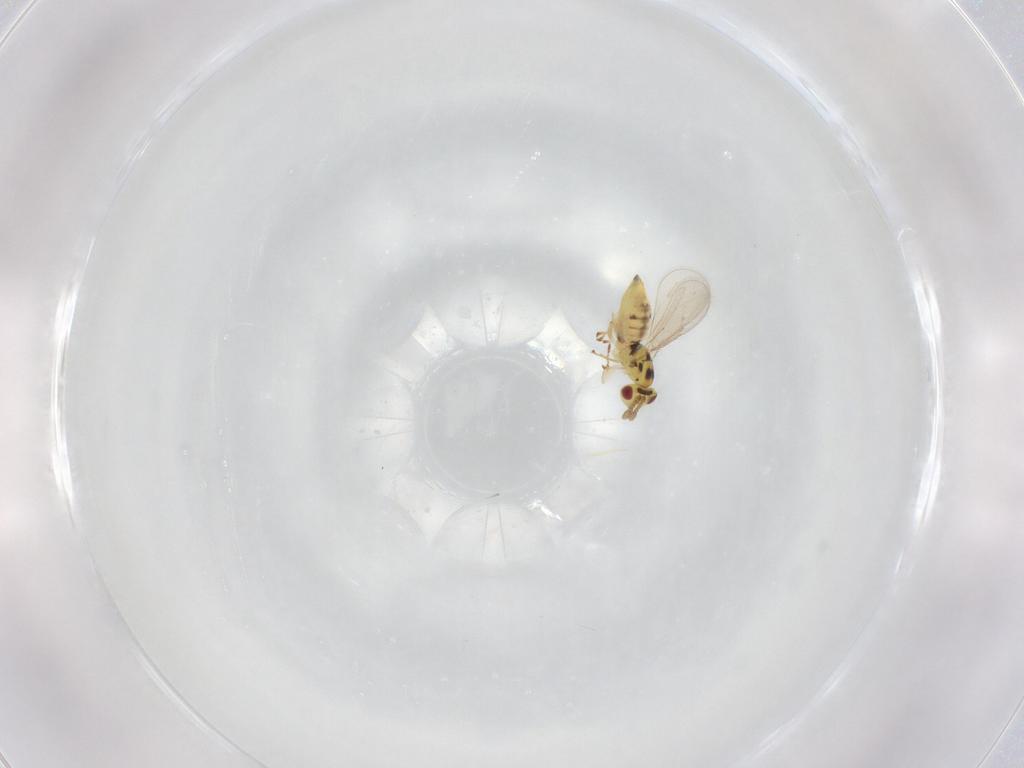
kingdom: Animalia
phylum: Arthropoda
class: Insecta
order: Hymenoptera
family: Eulophidae
